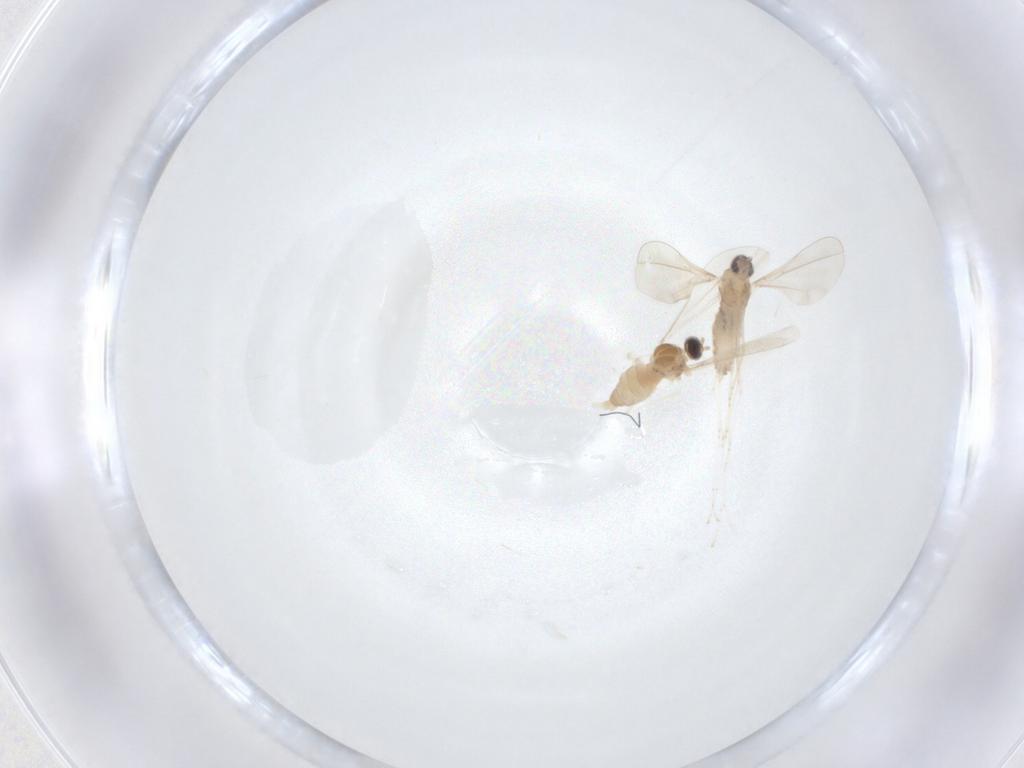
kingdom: Animalia
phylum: Arthropoda
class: Insecta
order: Diptera
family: Cecidomyiidae
